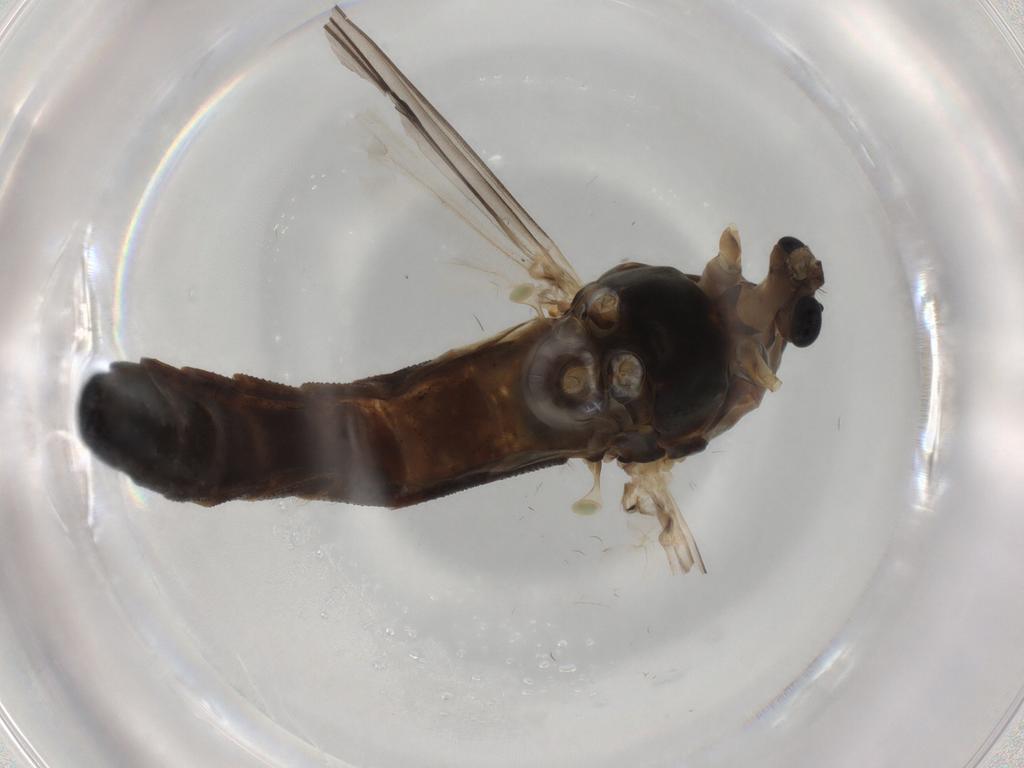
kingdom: Animalia
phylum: Arthropoda
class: Insecta
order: Diptera
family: Chironomidae
